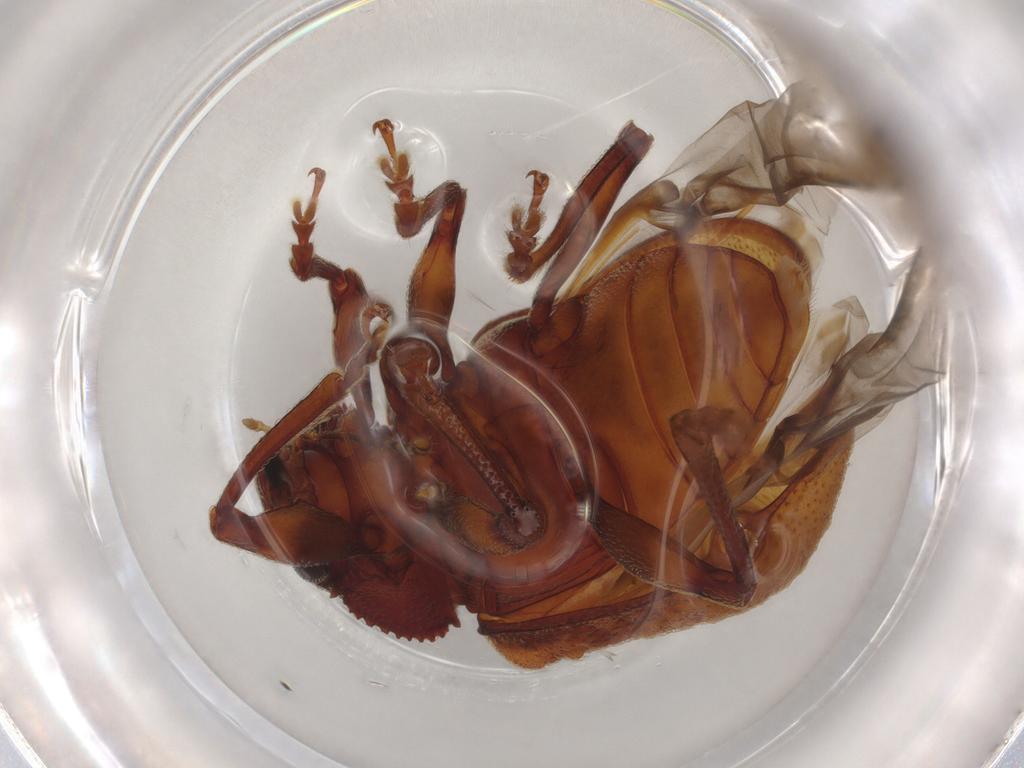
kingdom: Animalia
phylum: Arthropoda
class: Insecta
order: Coleoptera
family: Chrysomelidae
